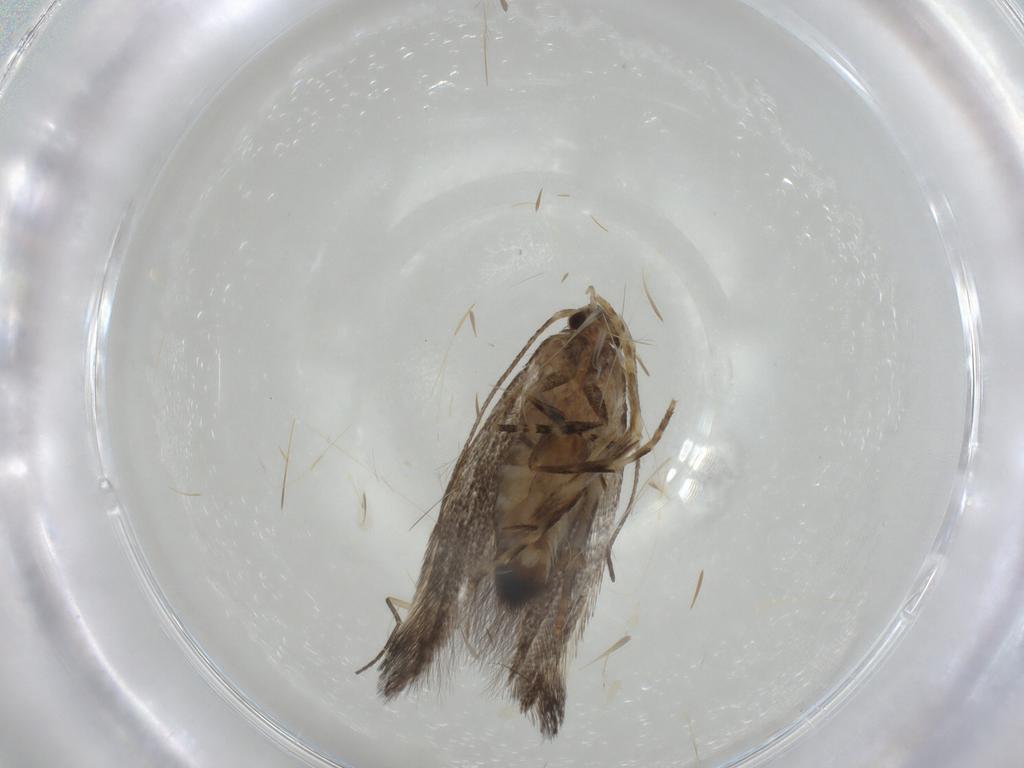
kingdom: Animalia
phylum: Arthropoda
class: Insecta
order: Lepidoptera
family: Elachistidae
